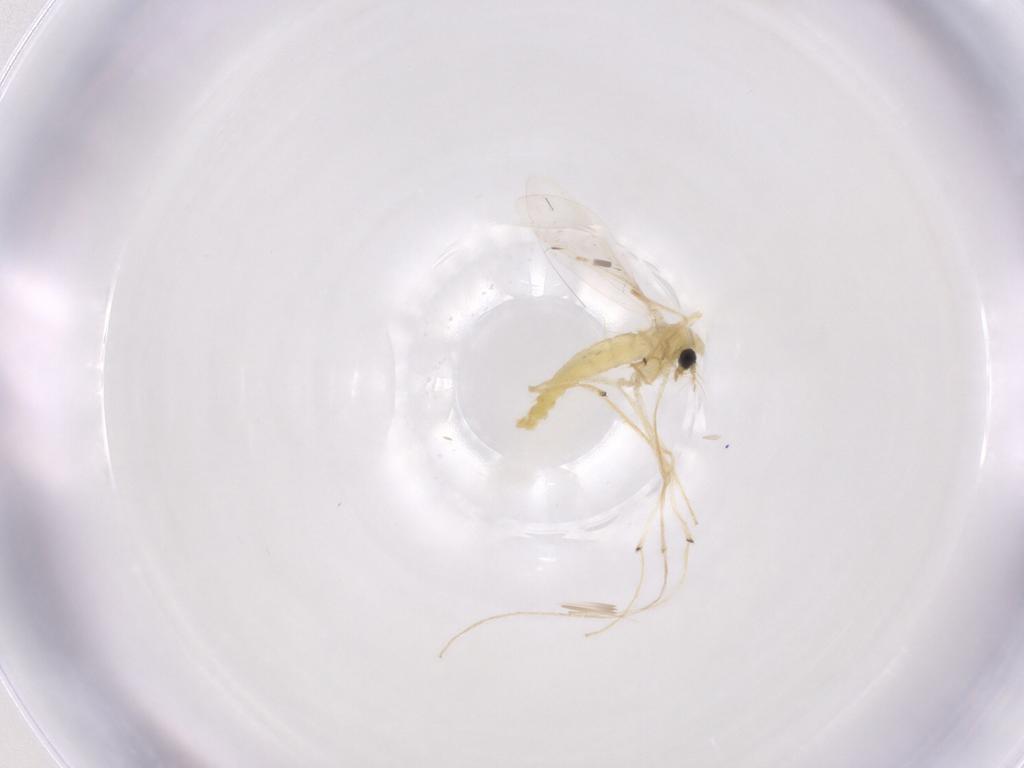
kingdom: Animalia
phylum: Arthropoda
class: Insecta
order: Diptera
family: Chironomidae
